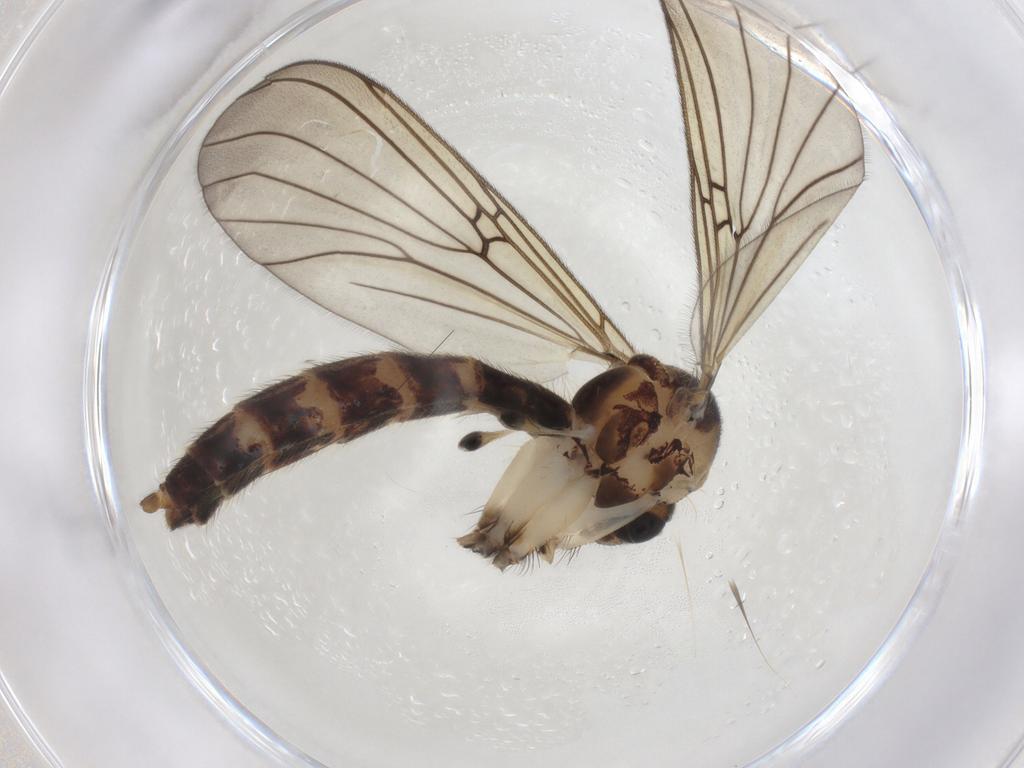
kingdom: Animalia
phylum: Arthropoda
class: Insecta
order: Diptera
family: Mycetophilidae
